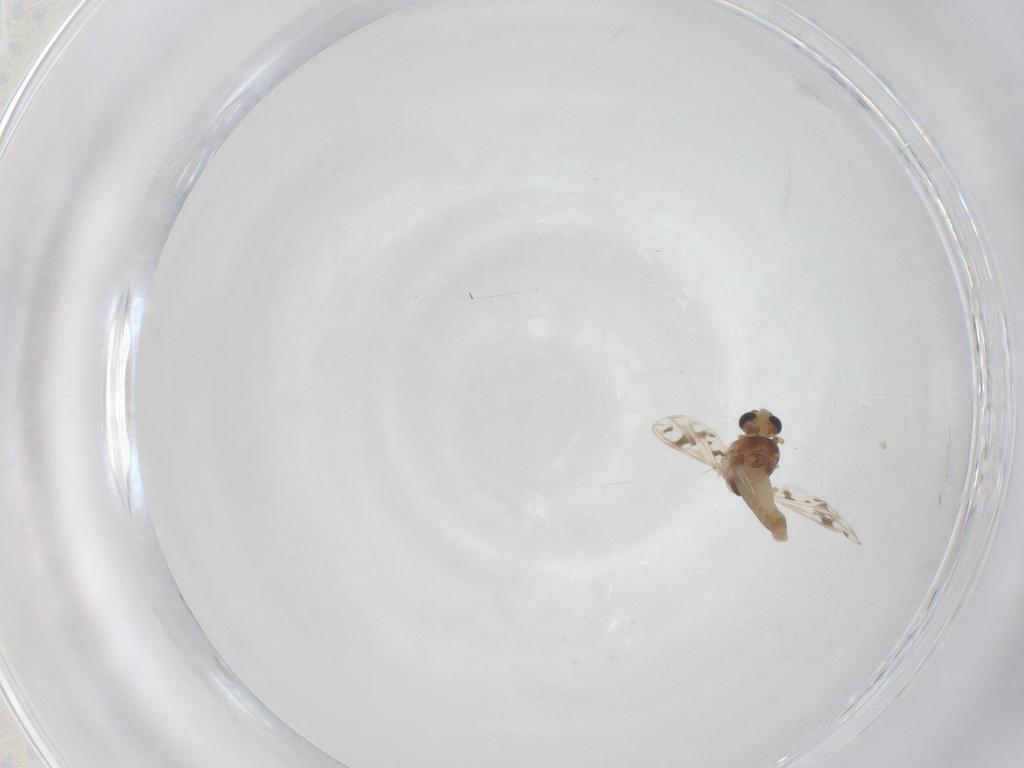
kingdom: Animalia
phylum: Arthropoda
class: Insecta
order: Diptera
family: Chironomidae
